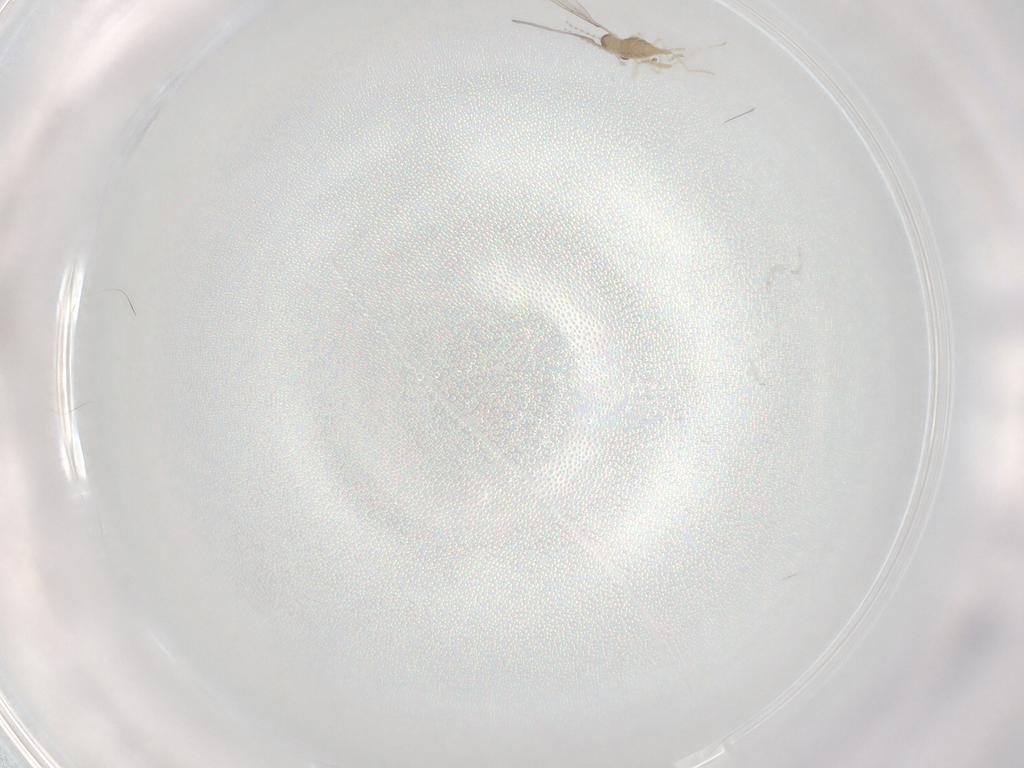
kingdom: Animalia
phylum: Arthropoda
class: Insecta
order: Diptera
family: Cecidomyiidae
